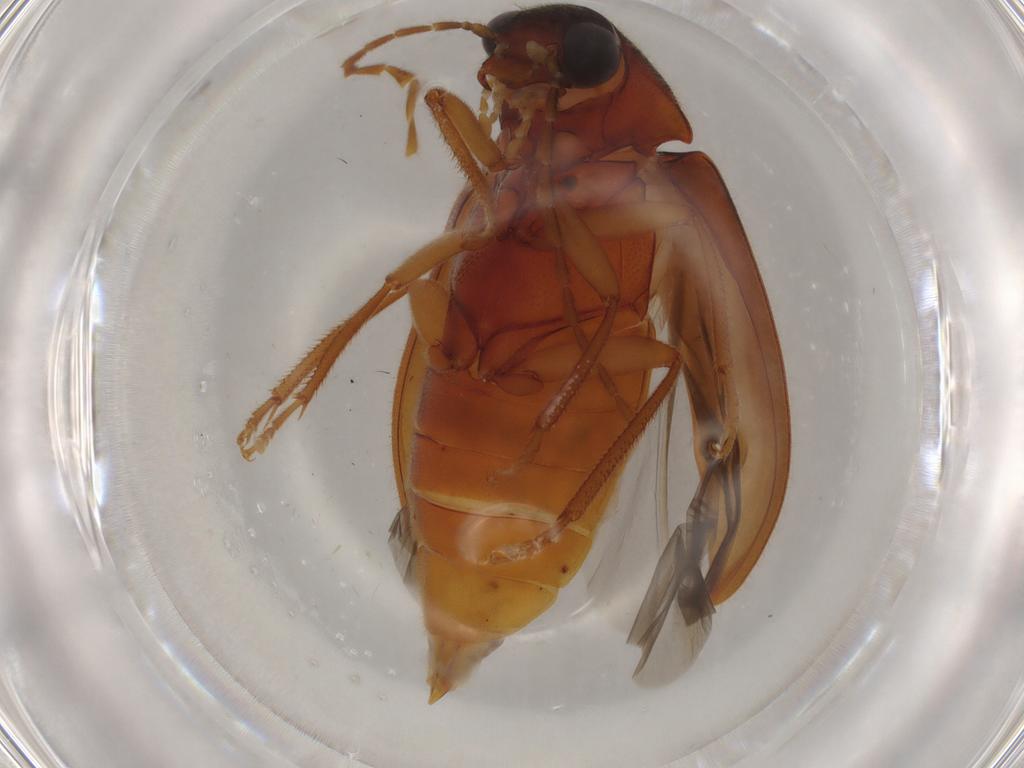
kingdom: Animalia
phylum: Arthropoda
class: Insecta
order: Coleoptera
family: Ptilodactylidae
